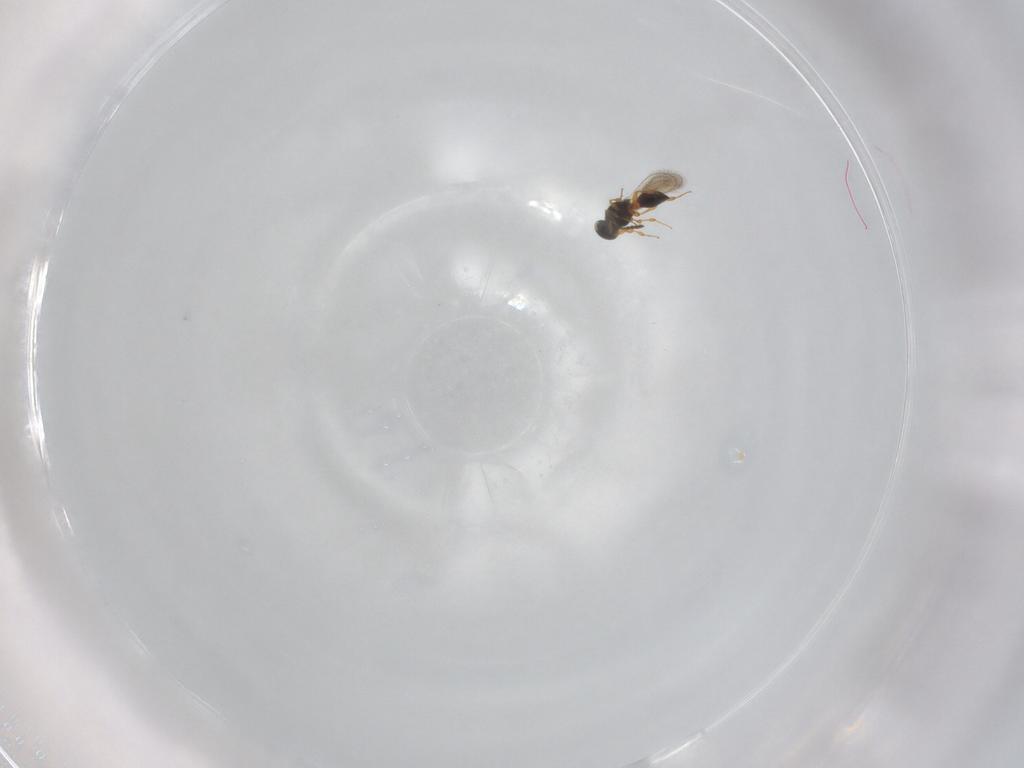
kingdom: Animalia
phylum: Arthropoda
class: Insecta
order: Hymenoptera
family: Platygastridae
